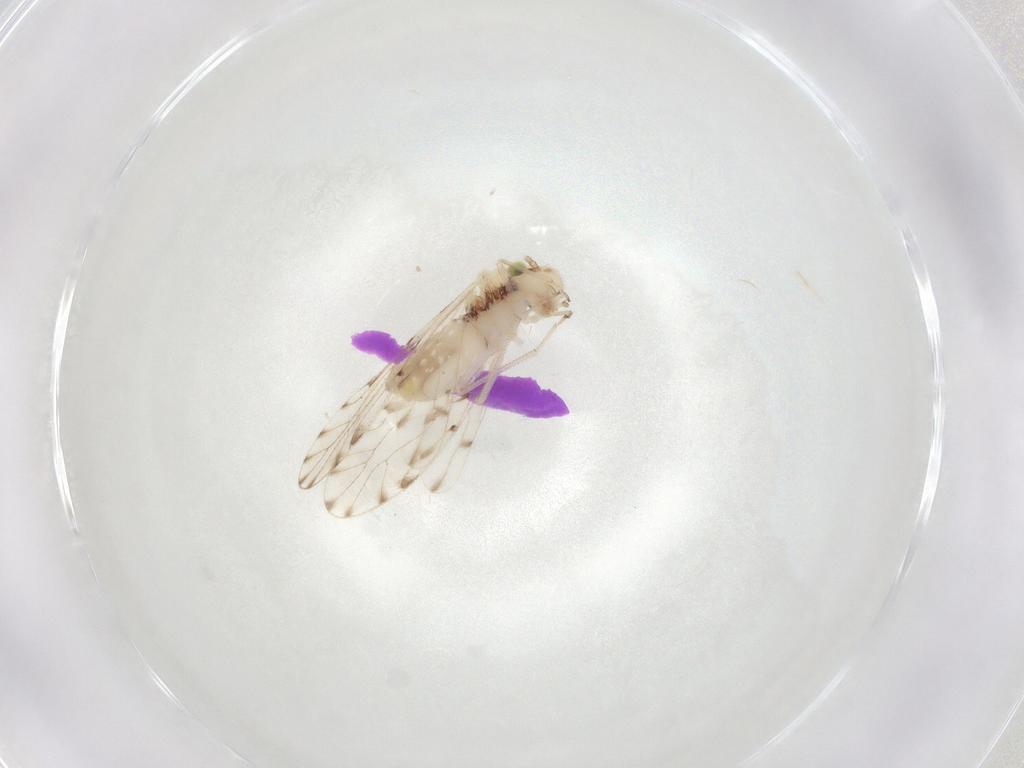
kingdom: Animalia
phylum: Arthropoda
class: Insecta
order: Psocodea
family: Trichopsocidae
